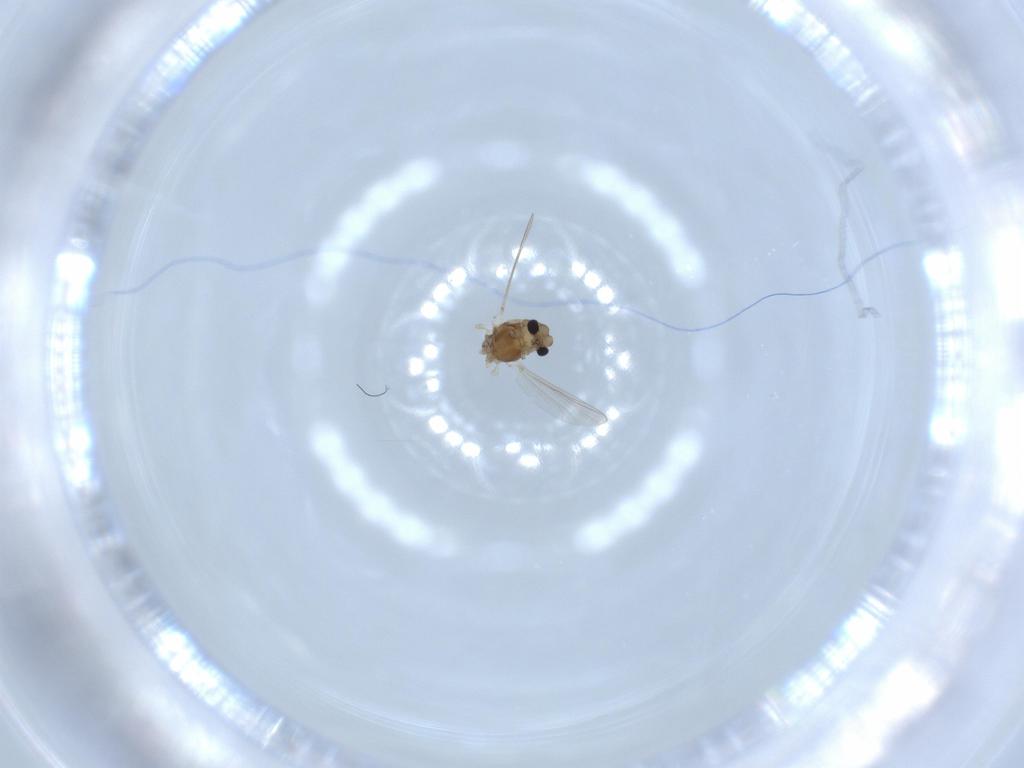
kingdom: Animalia
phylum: Arthropoda
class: Insecta
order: Diptera
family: Chironomidae
